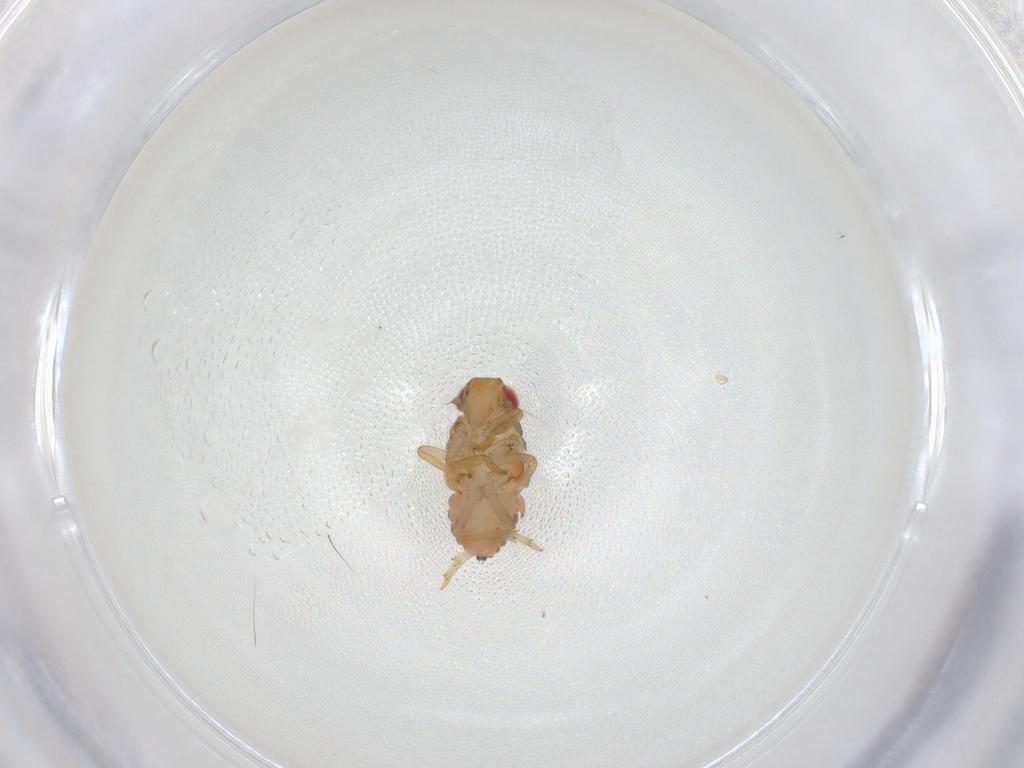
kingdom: Animalia
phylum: Arthropoda
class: Insecta
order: Hemiptera
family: Issidae
